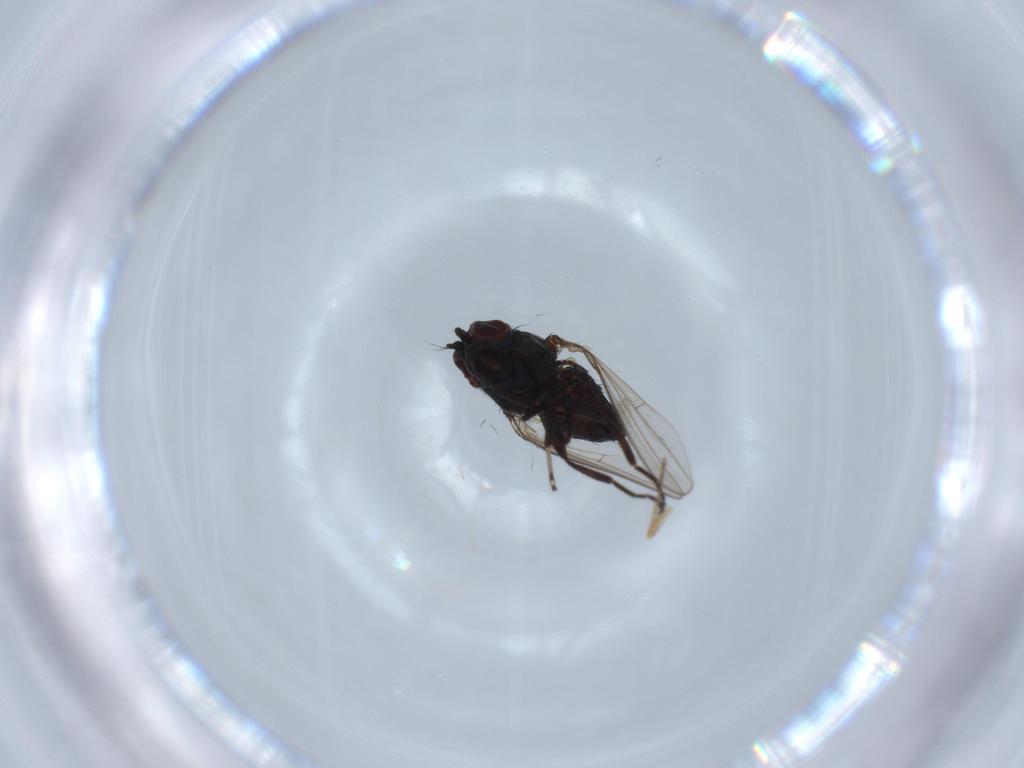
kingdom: Animalia
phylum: Arthropoda
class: Insecta
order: Diptera
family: Ephydridae
